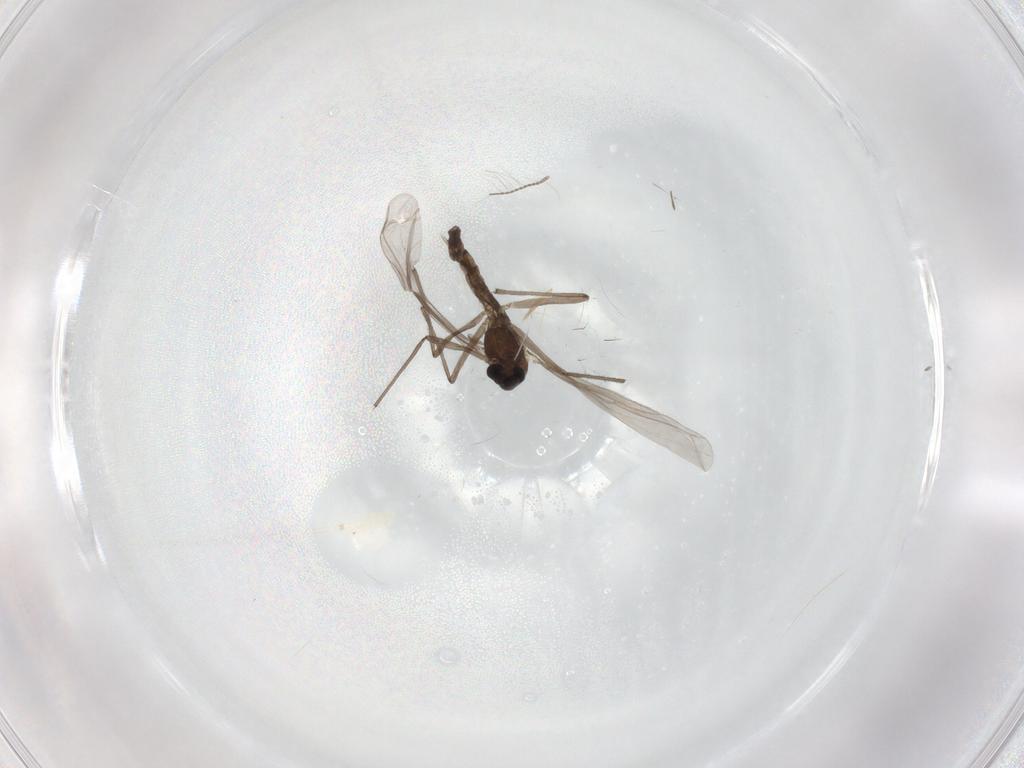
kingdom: Animalia
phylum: Arthropoda
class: Insecta
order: Diptera
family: Chironomidae
